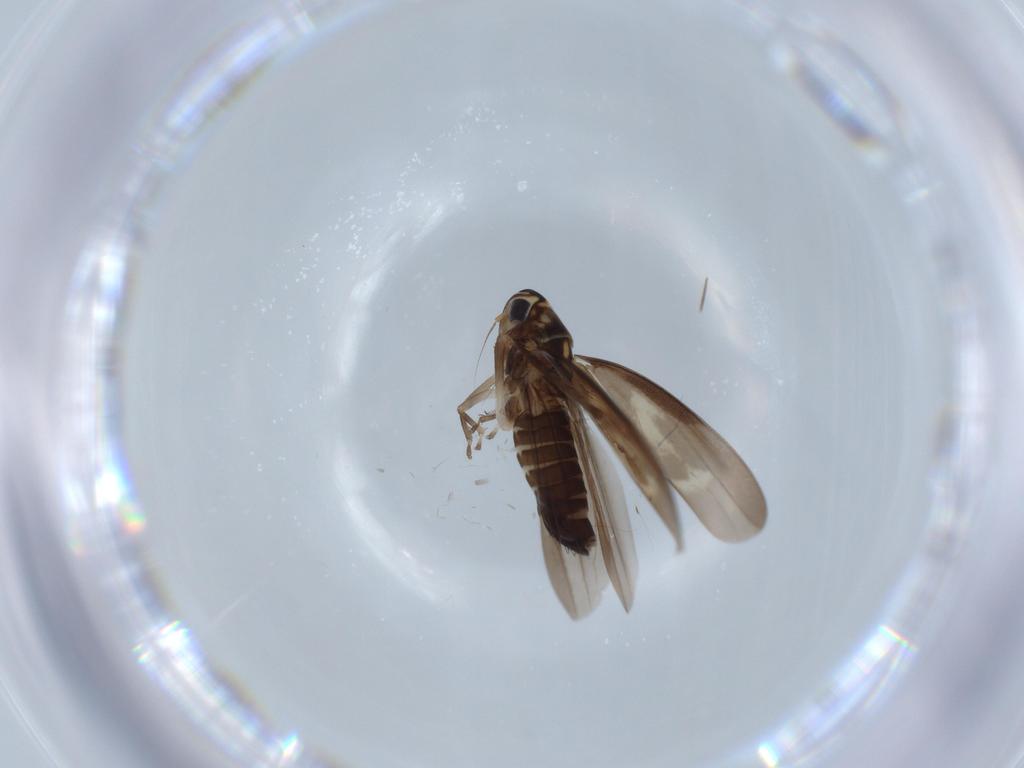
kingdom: Animalia
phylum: Arthropoda
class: Insecta
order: Hemiptera
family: Cicadellidae
